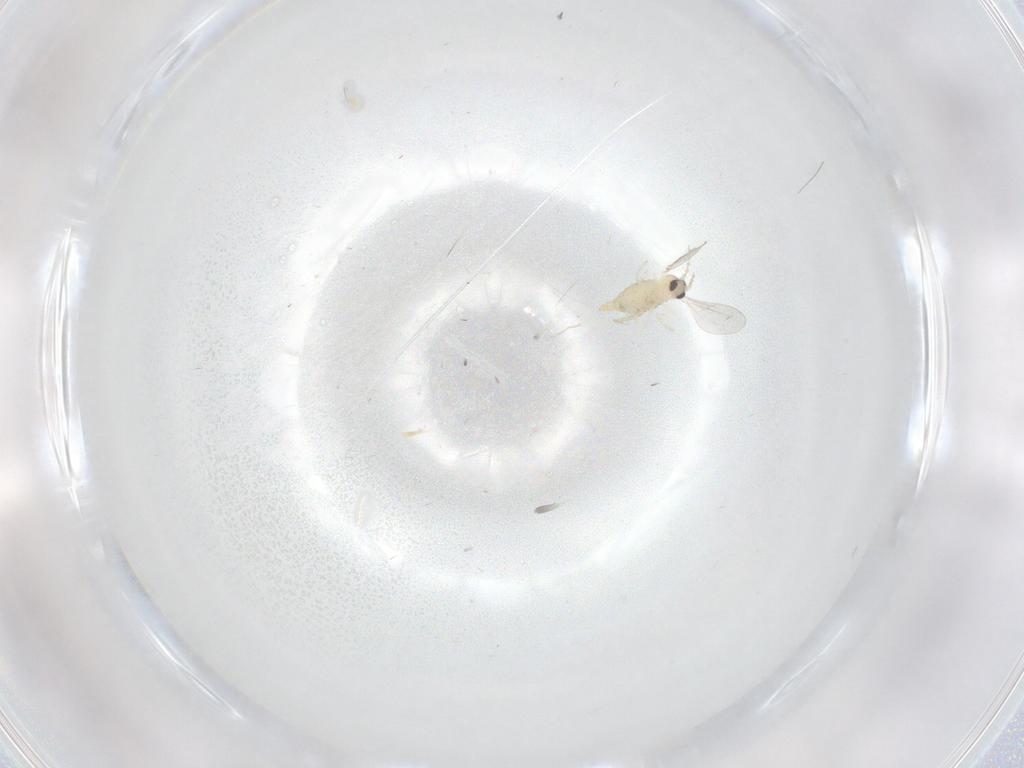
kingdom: Animalia
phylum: Arthropoda
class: Insecta
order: Diptera
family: Cecidomyiidae
